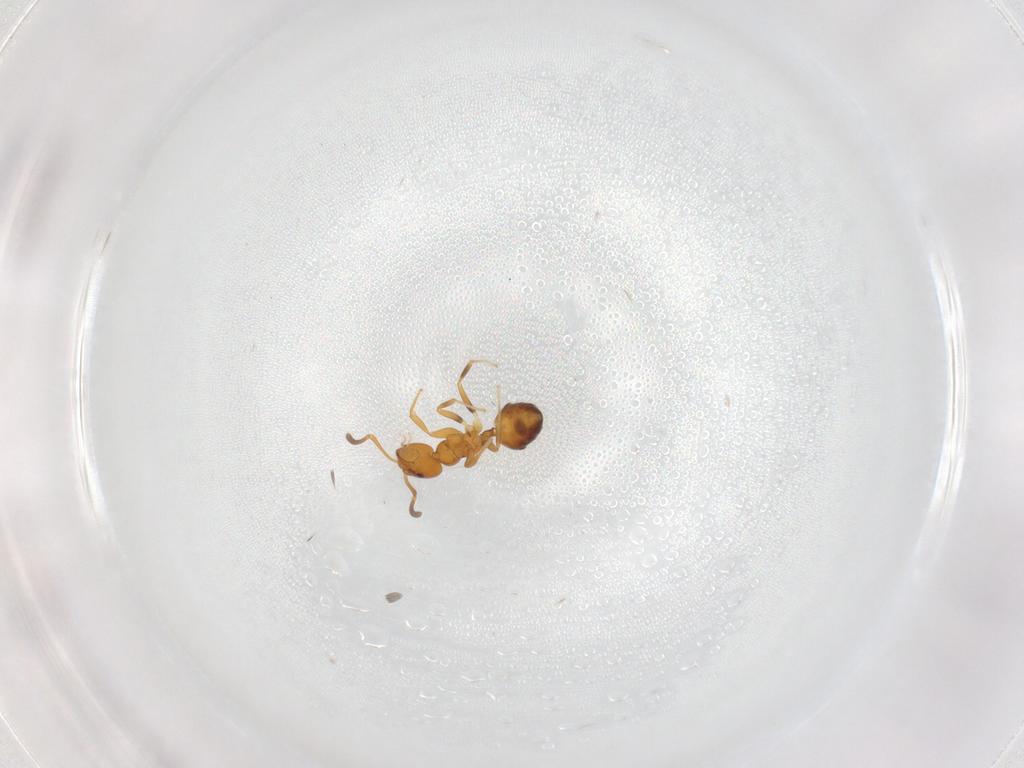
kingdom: Animalia
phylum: Arthropoda
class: Insecta
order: Hymenoptera
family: Formicidae
